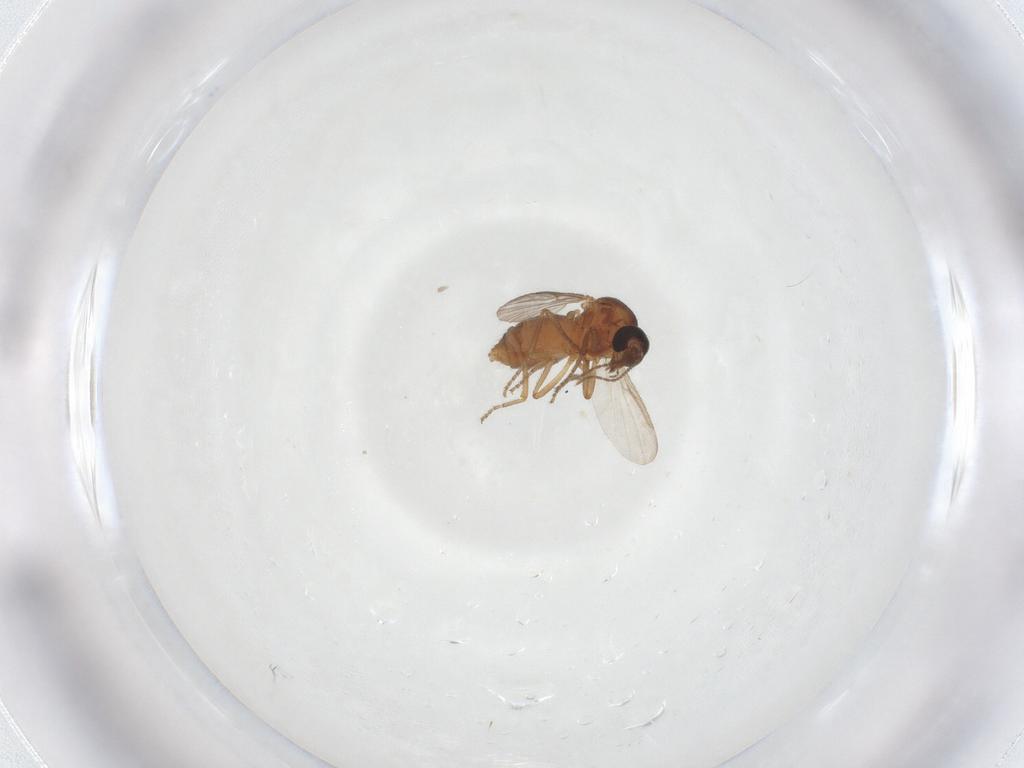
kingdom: Animalia
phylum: Arthropoda
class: Insecta
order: Diptera
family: Ceratopogonidae
